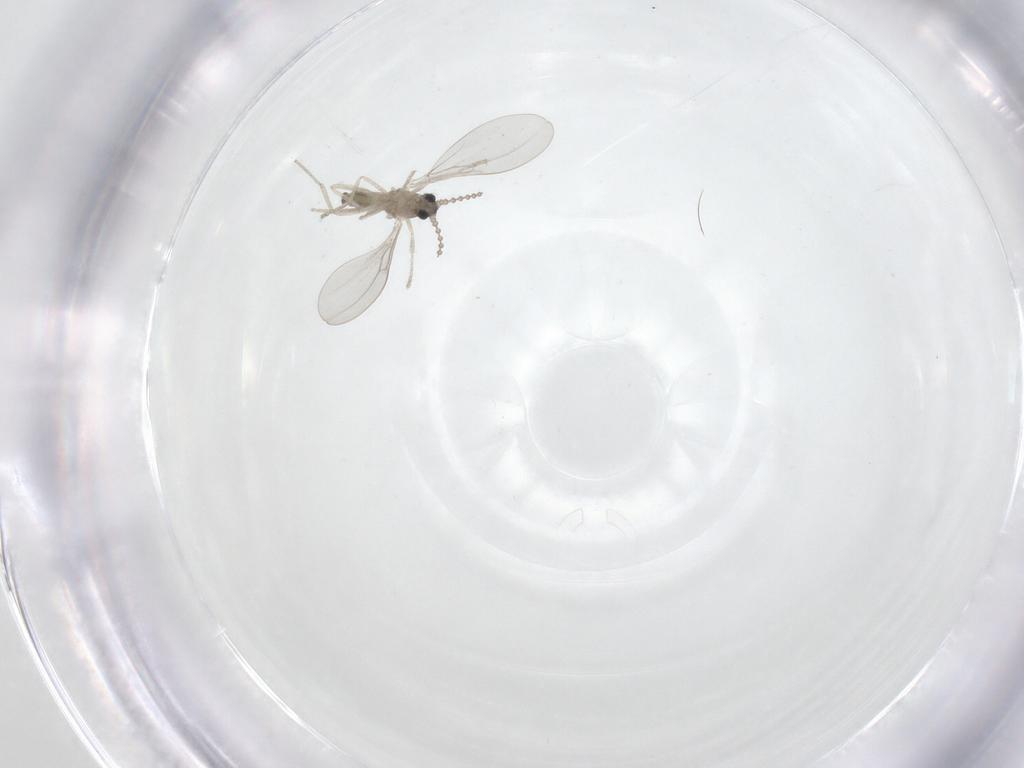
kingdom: Animalia
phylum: Arthropoda
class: Insecta
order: Diptera
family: Cecidomyiidae
